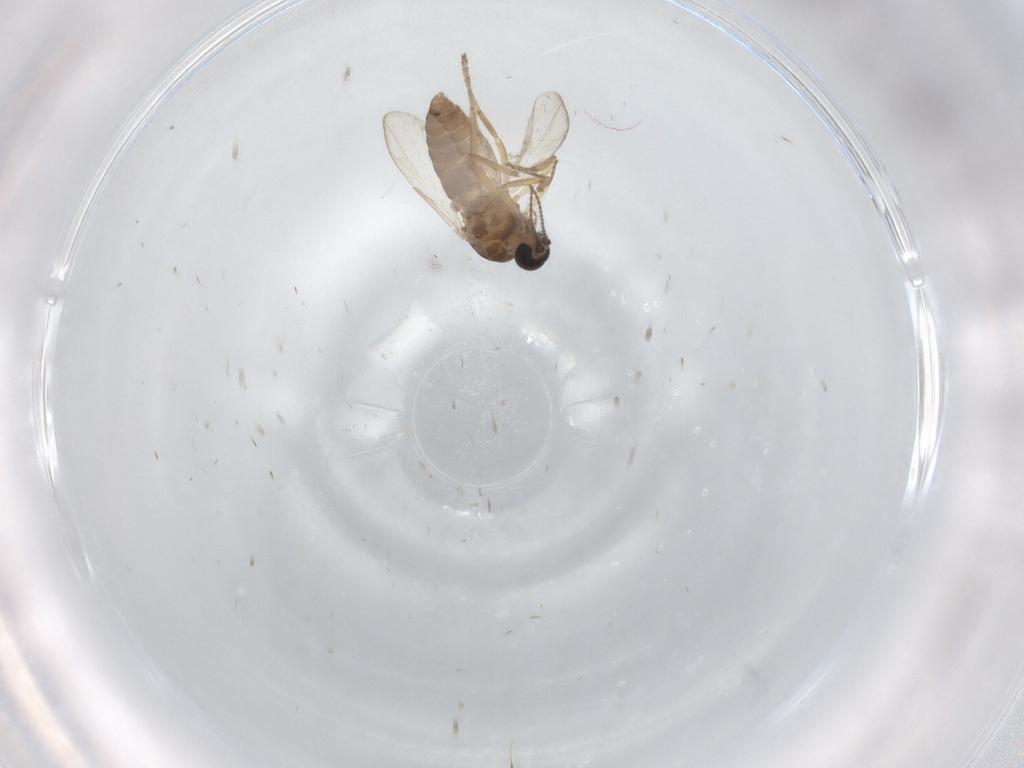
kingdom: Animalia
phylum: Arthropoda
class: Insecta
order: Diptera
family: Ceratopogonidae
